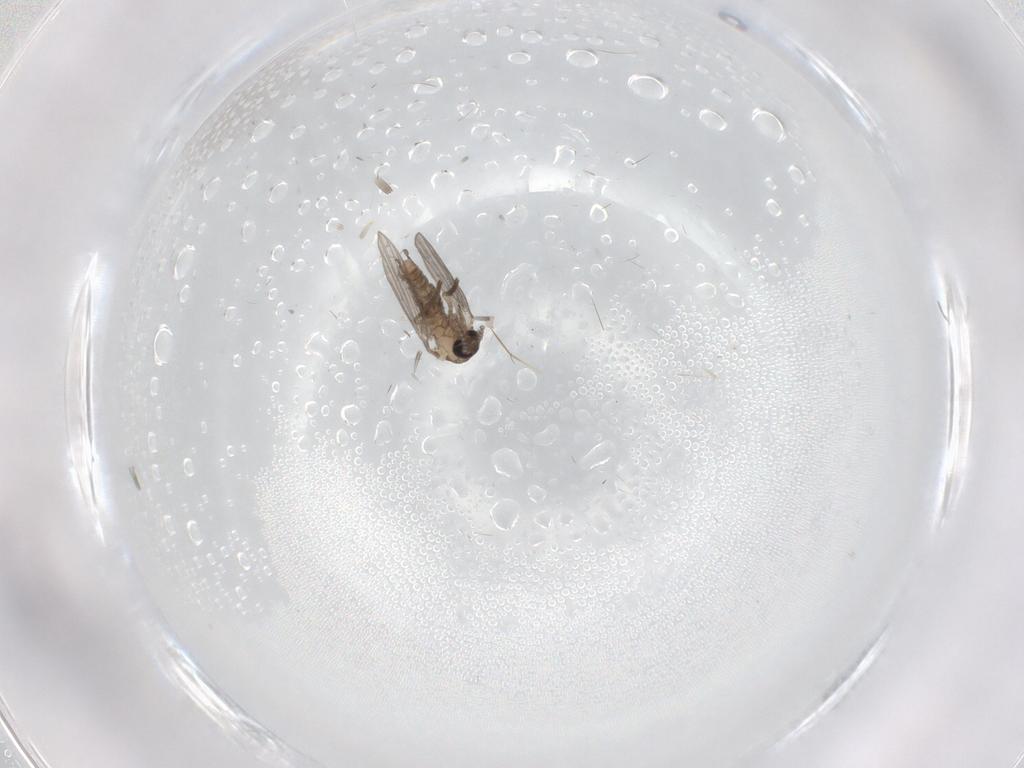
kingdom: Animalia
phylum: Arthropoda
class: Insecta
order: Diptera
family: Psychodidae
